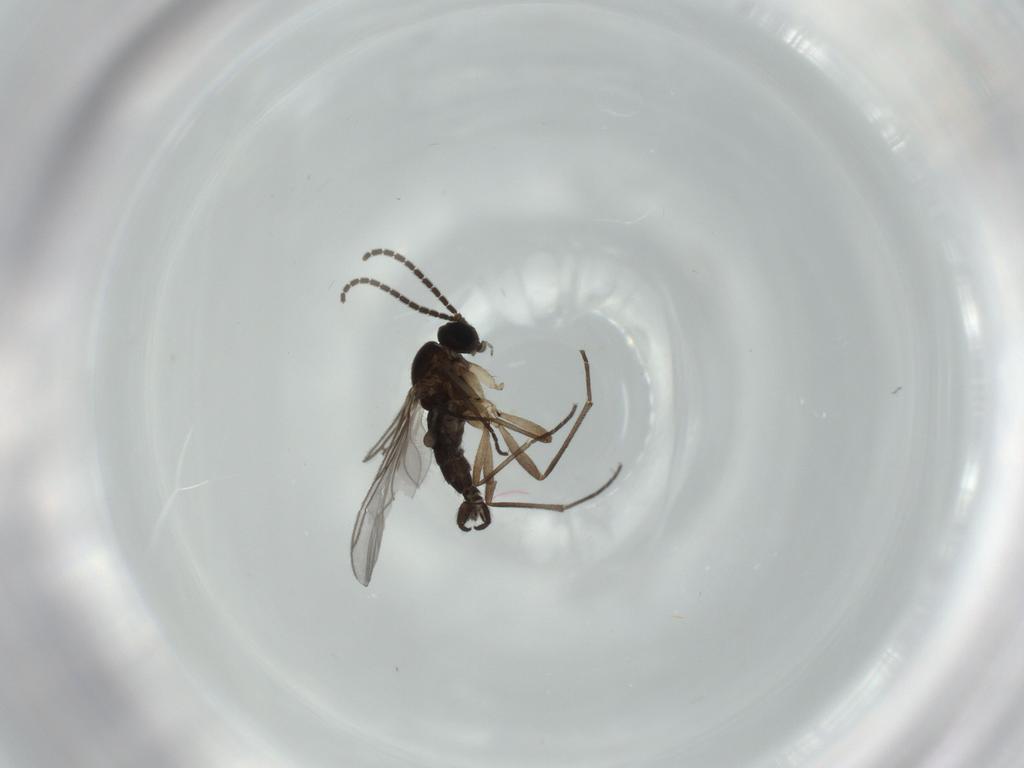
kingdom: Animalia
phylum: Arthropoda
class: Insecta
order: Diptera
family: Sciaridae
